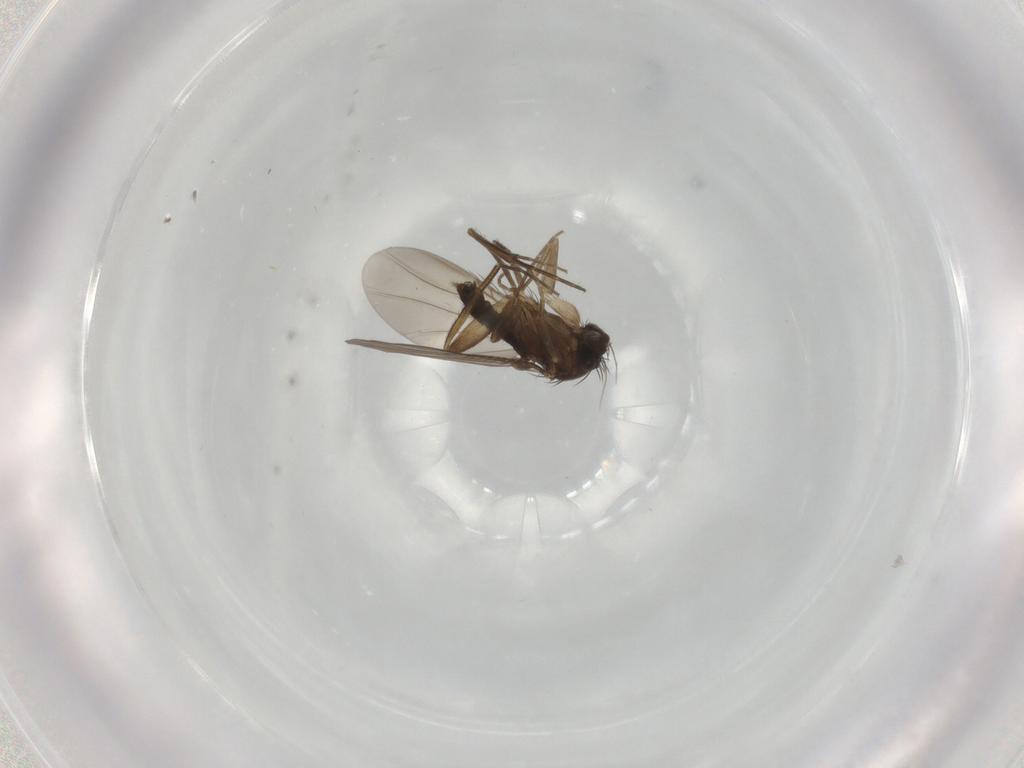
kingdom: Animalia
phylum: Arthropoda
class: Insecta
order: Diptera
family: Phoridae
